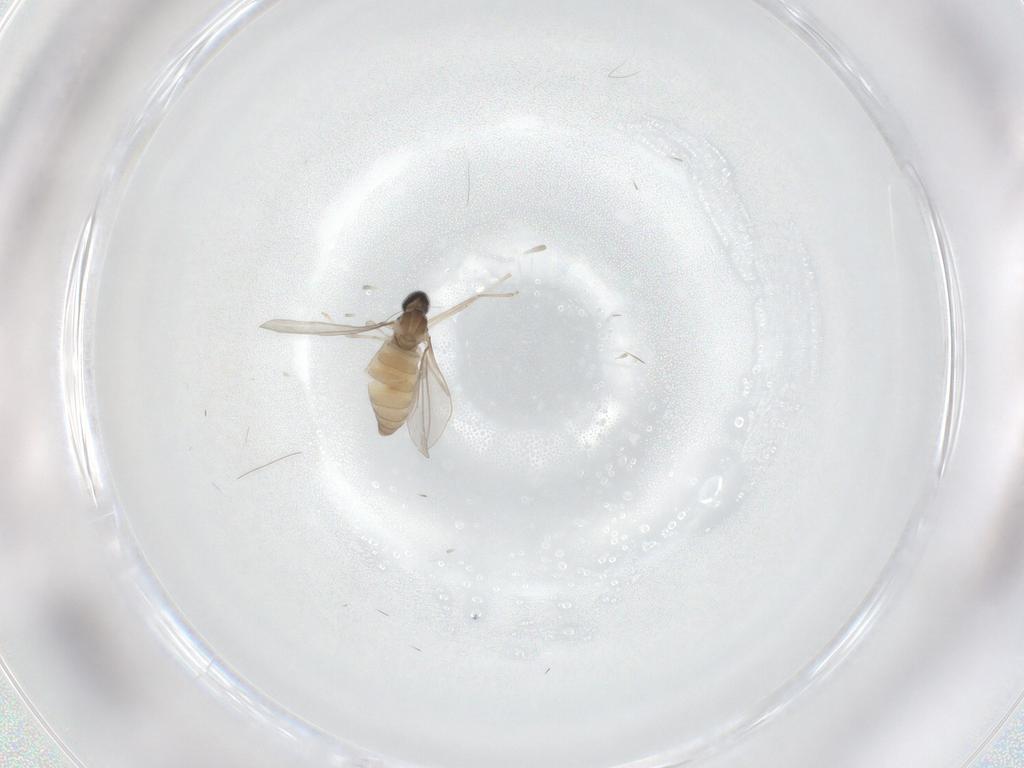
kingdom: Animalia
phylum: Arthropoda
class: Insecta
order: Diptera
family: Cecidomyiidae
